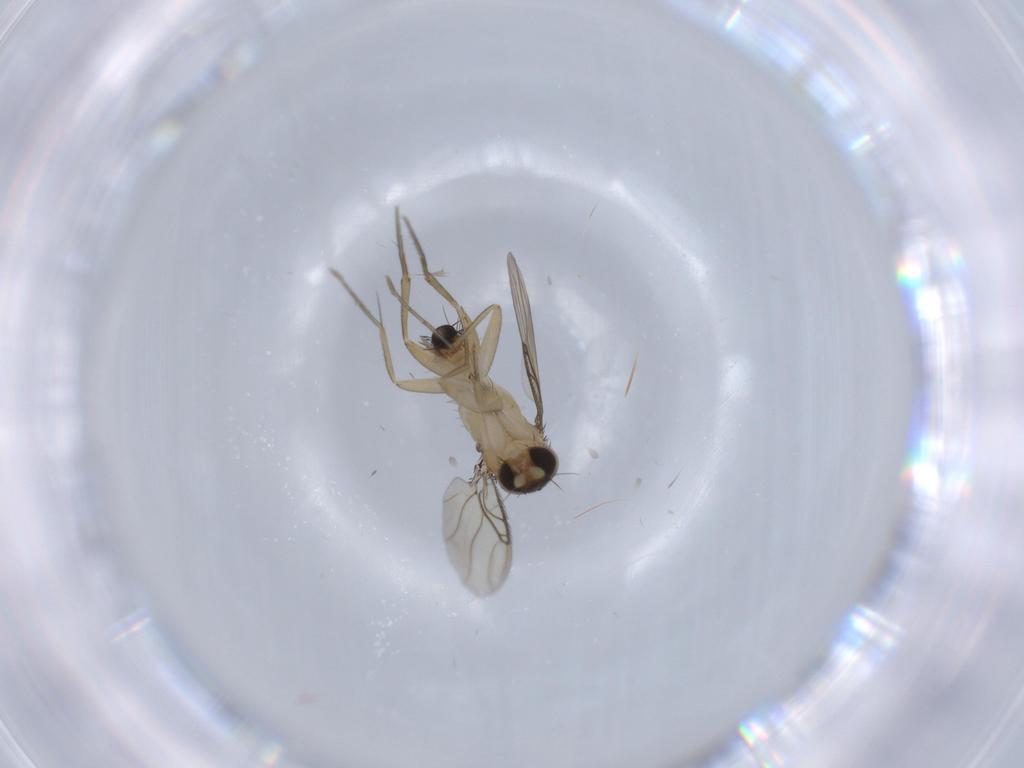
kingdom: Animalia
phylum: Arthropoda
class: Insecta
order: Diptera
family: Phoridae
